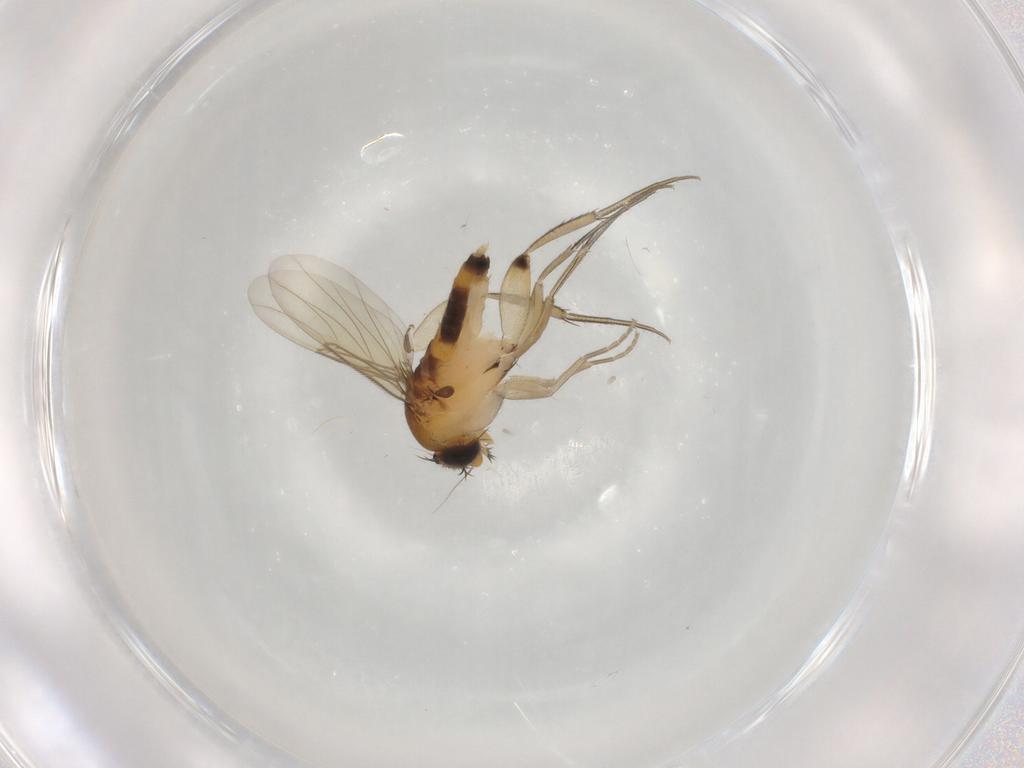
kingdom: Animalia
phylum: Arthropoda
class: Insecta
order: Diptera
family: Phoridae
